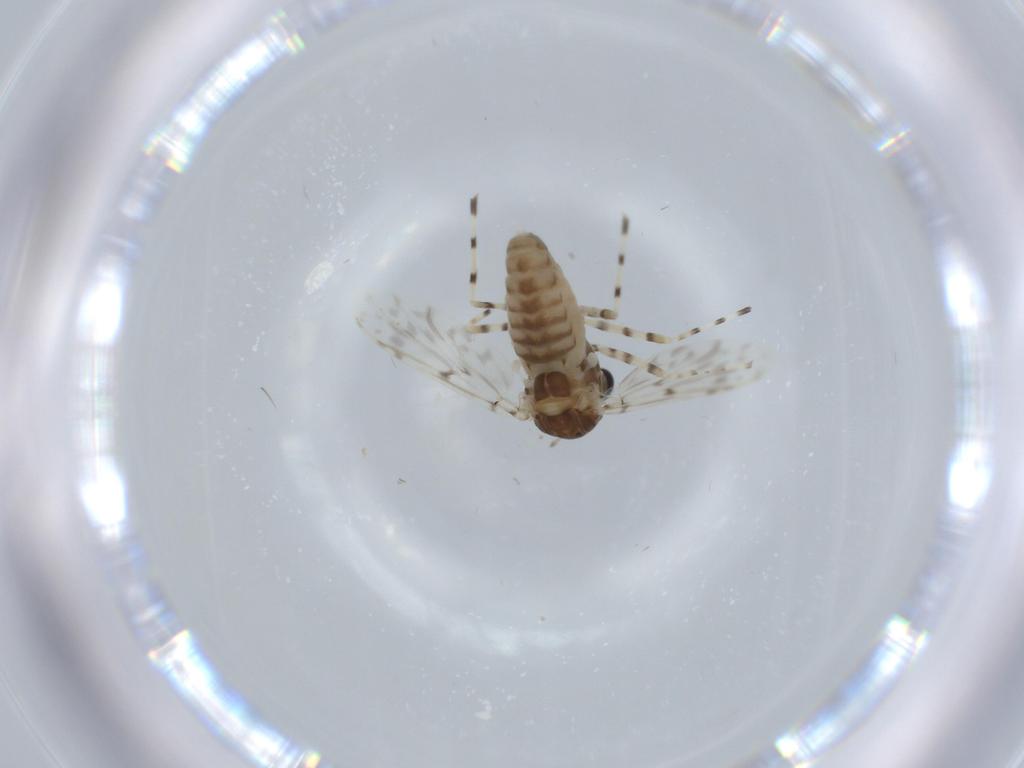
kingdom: Animalia
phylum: Arthropoda
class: Insecta
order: Diptera
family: Chironomidae
